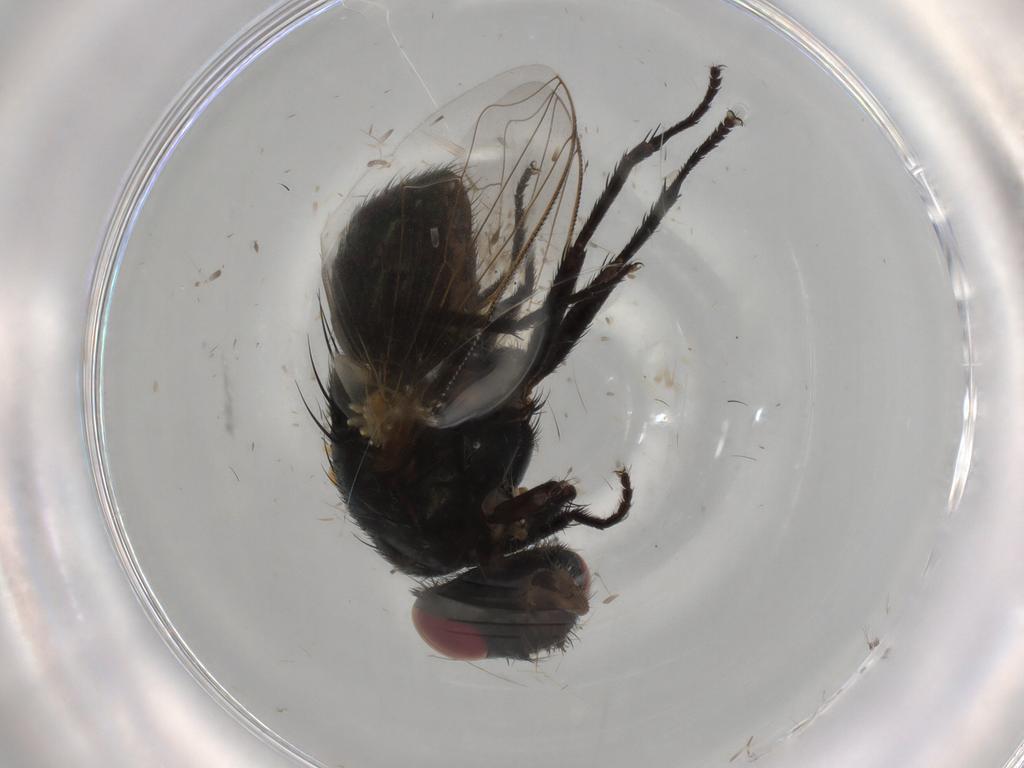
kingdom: Animalia
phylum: Arthropoda
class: Insecta
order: Diptera
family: Glossinidae
